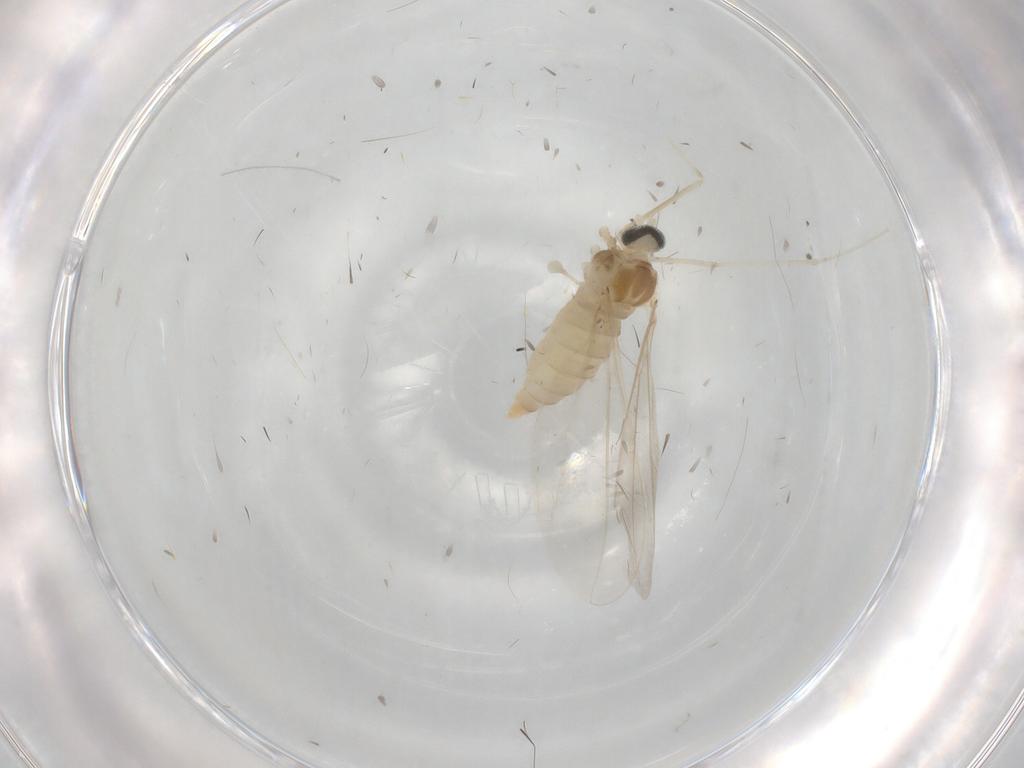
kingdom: Animalia
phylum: Arthropoda
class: Insecta
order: Diptera
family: Cecidomyiidae
